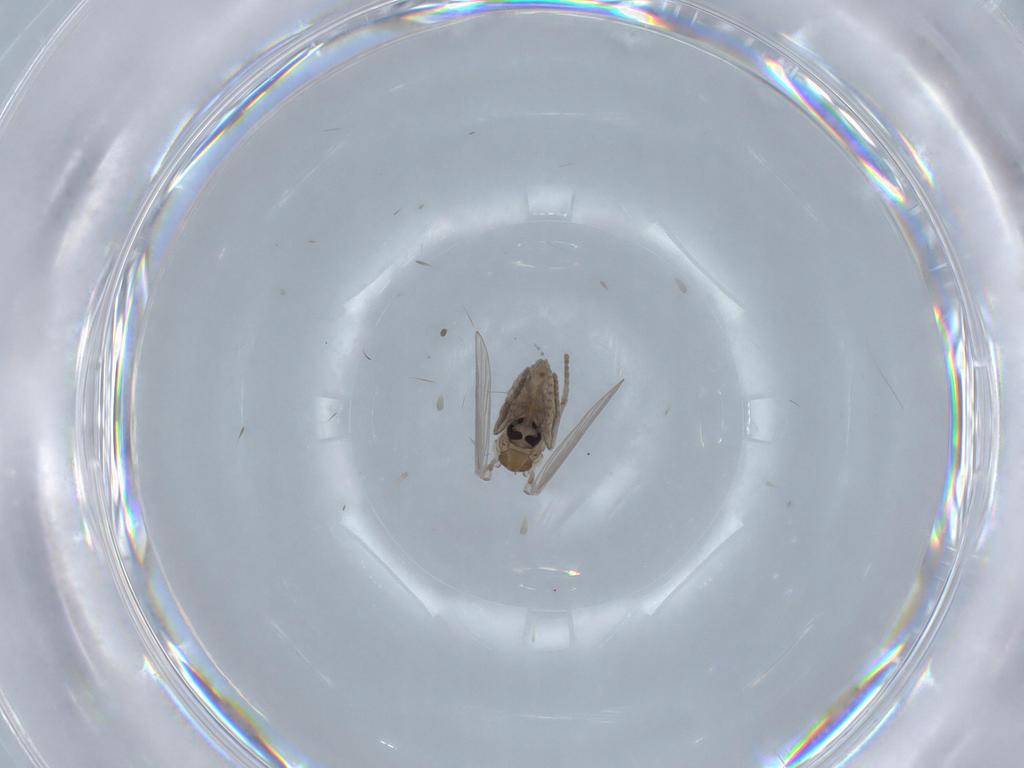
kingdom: Animalia
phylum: Arthropoda
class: Insecta
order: Diptera
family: Psychodidae
